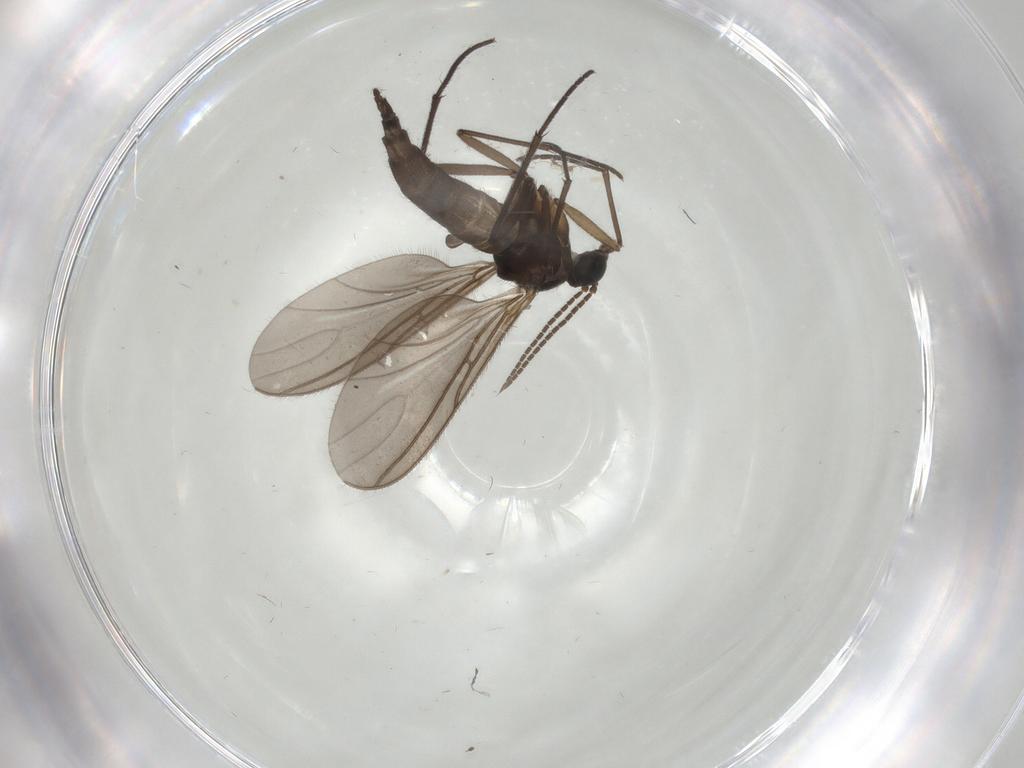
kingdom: Animalia
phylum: Arthropoda
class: Insecta
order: Diptera
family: Cecidomyiidae
